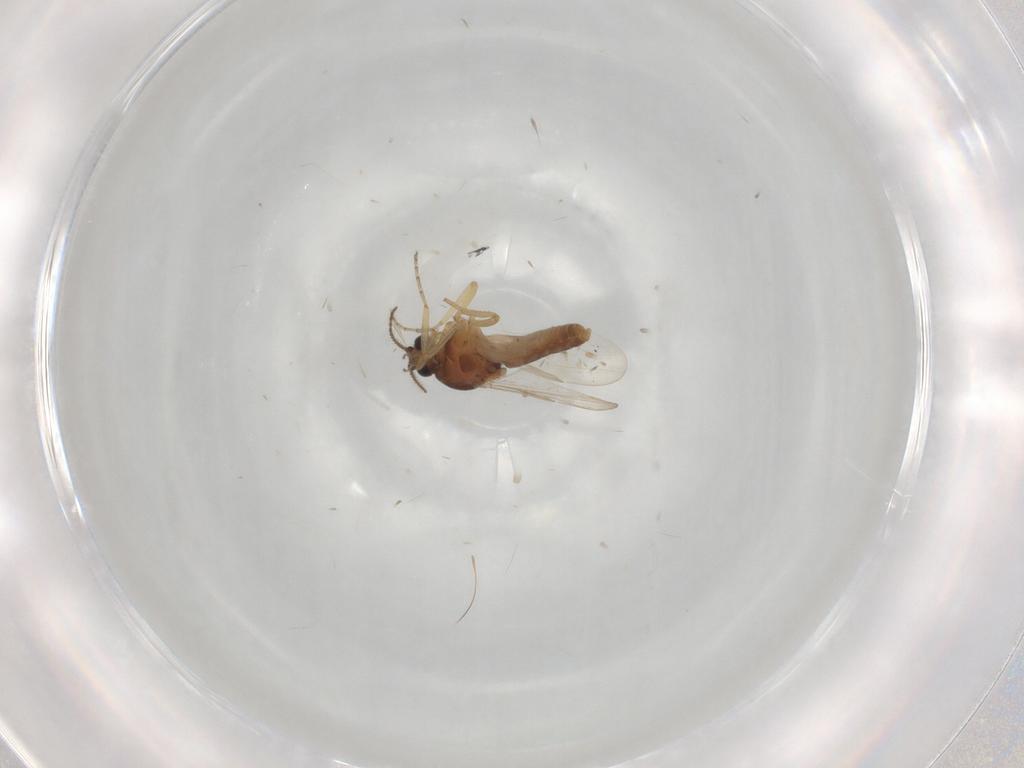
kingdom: Animalia
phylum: Arthropoda
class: Insecta
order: Diptera
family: Ceratopogonidae
